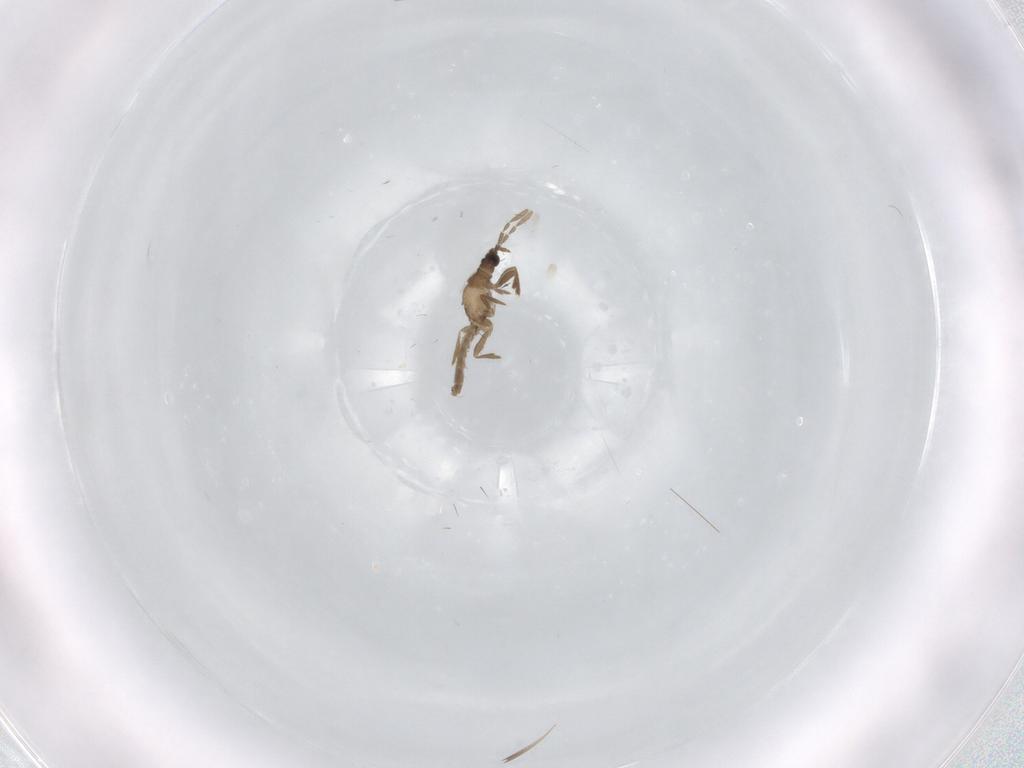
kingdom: Animalia
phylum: Arthropoda
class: Insecta
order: Hemiptera
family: Enicocephalidae
